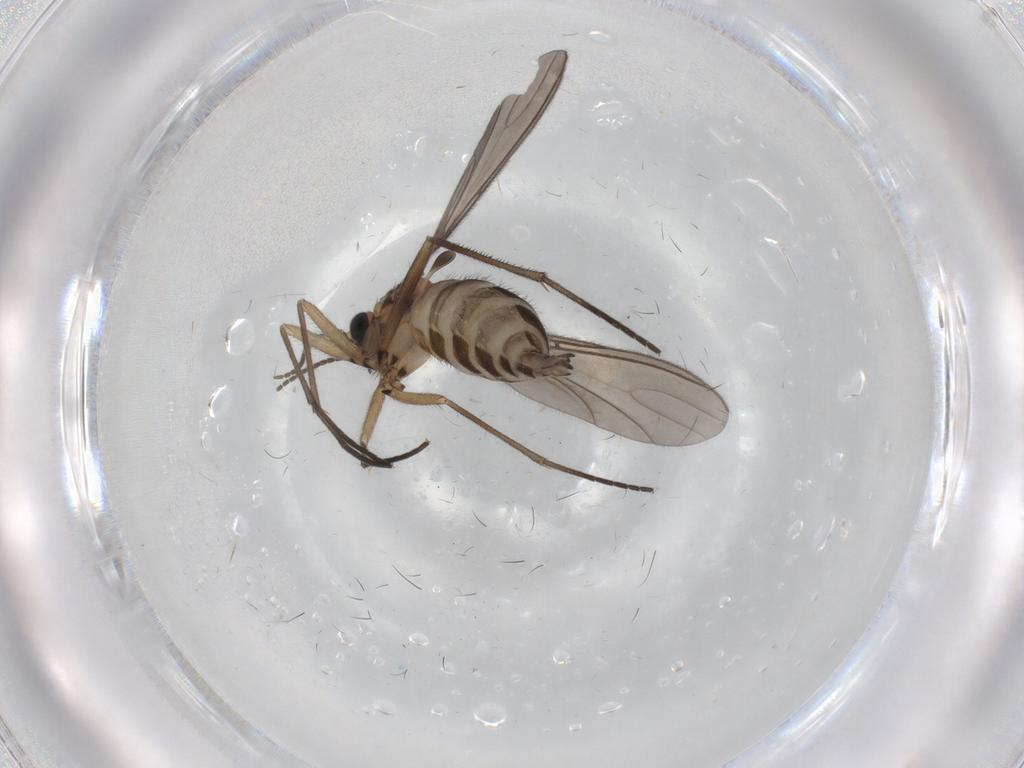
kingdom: Animalia
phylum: Arthropoda
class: Insecta
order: Diptera
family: Sciaridae
